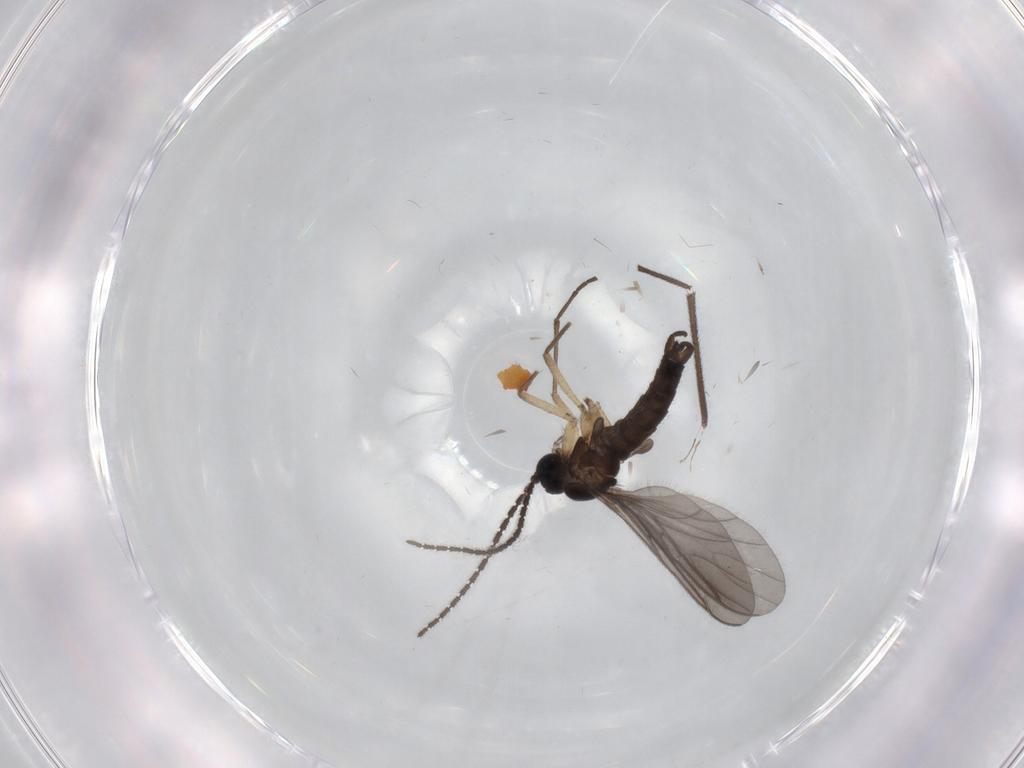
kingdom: Animalia
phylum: Arthropoda
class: Insecta
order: Diptera
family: Sciaridae
